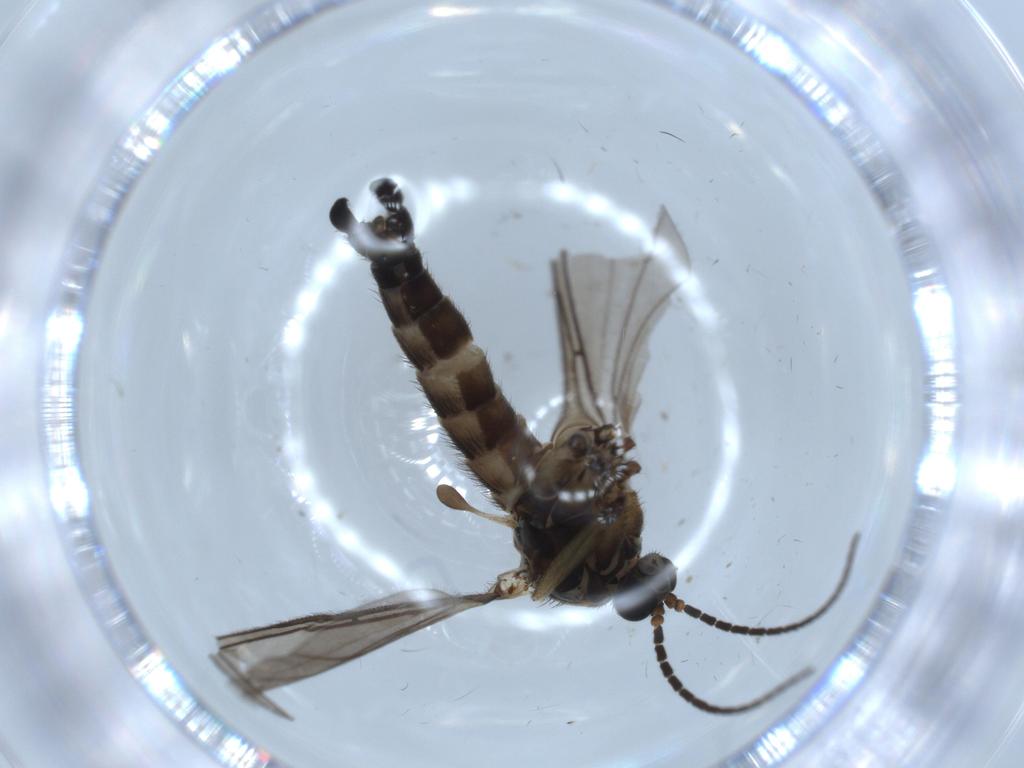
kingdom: Animalia
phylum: Arthropoda
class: Insecta
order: Diptera
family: Sciaridae
